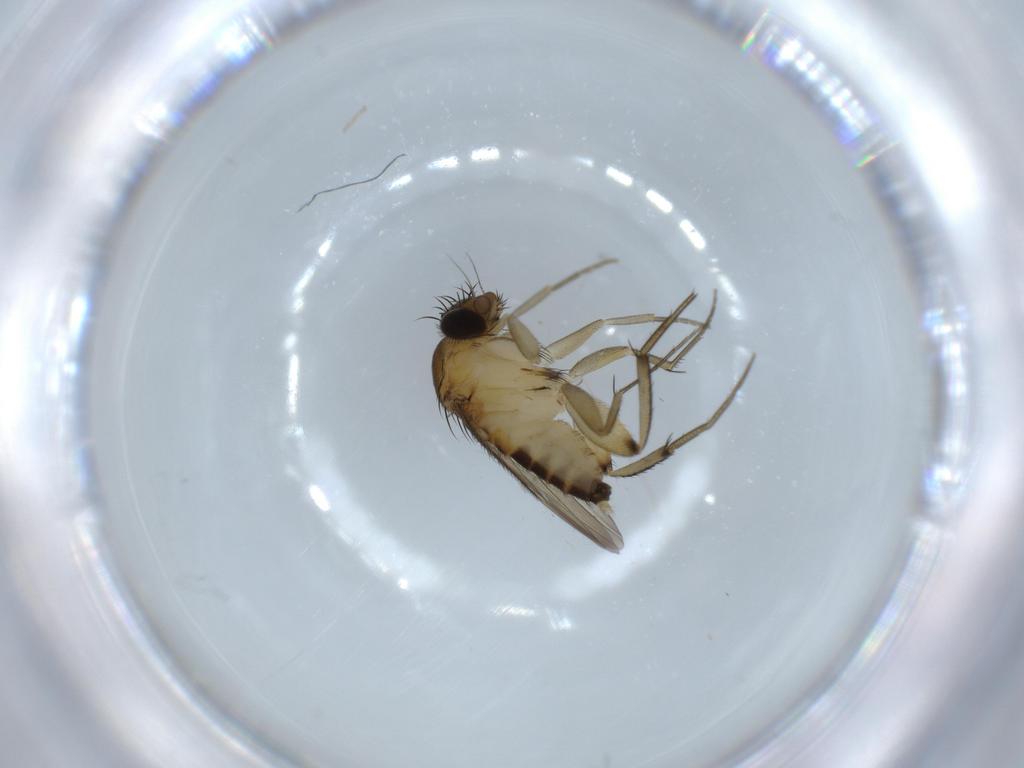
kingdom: Animalia
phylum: Arthropoda
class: Insecta
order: Diptera
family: Phoridae
